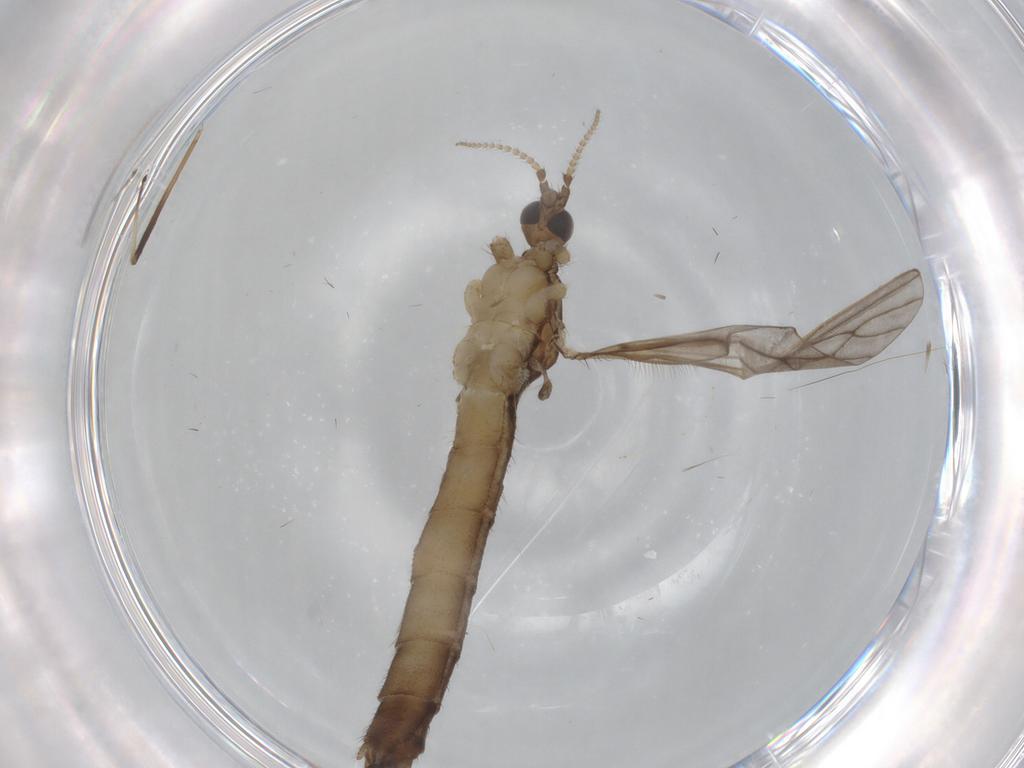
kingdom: Animalia
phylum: Arthropoda
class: Insecta
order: Diptera
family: Limoniidae
